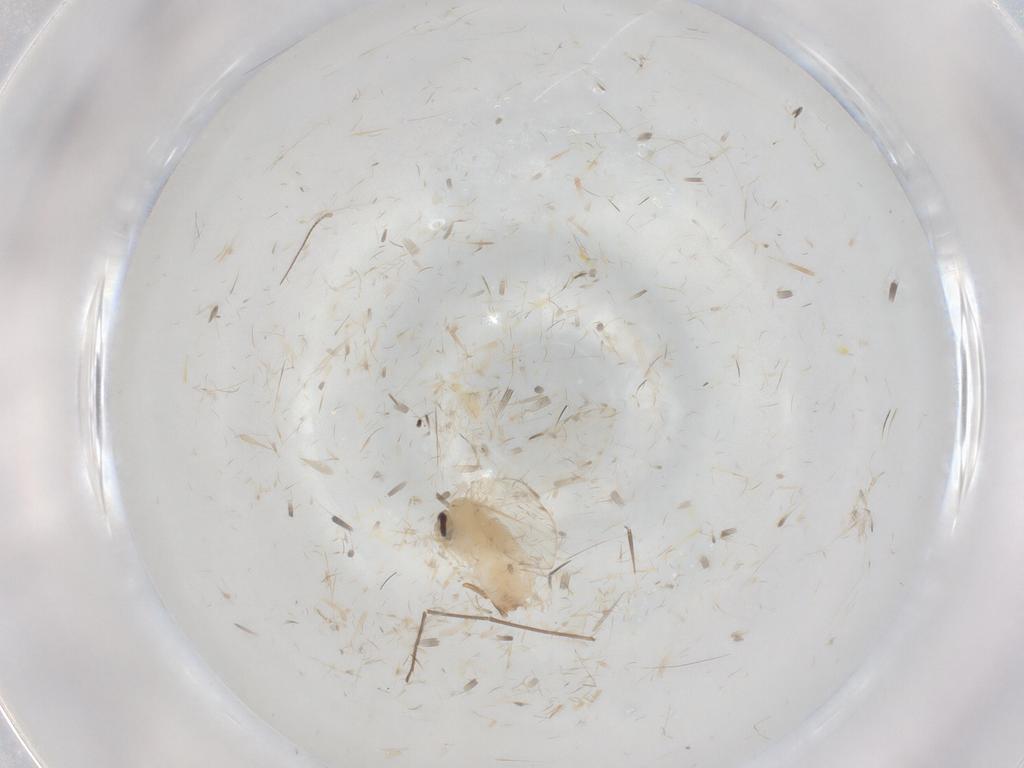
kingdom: Animalia
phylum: Arthropoda
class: Insecta
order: Diptera
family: Psychodidae
